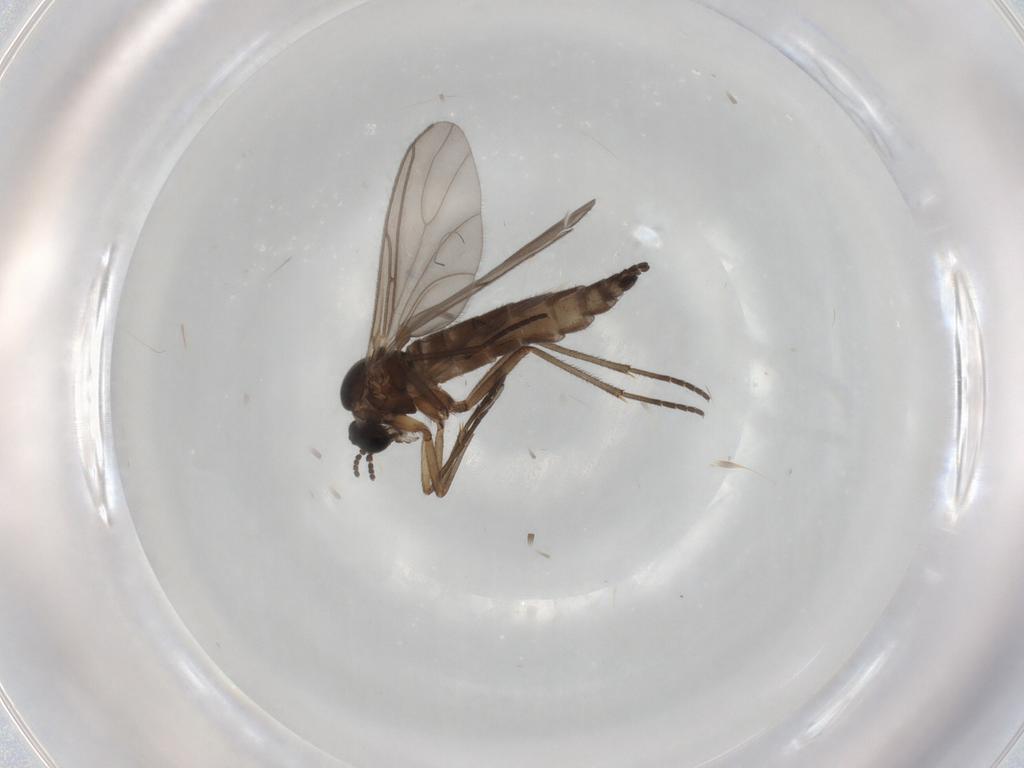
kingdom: Animalia
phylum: Arthropoda
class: Insecta
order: Diptera
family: Sciaridae
